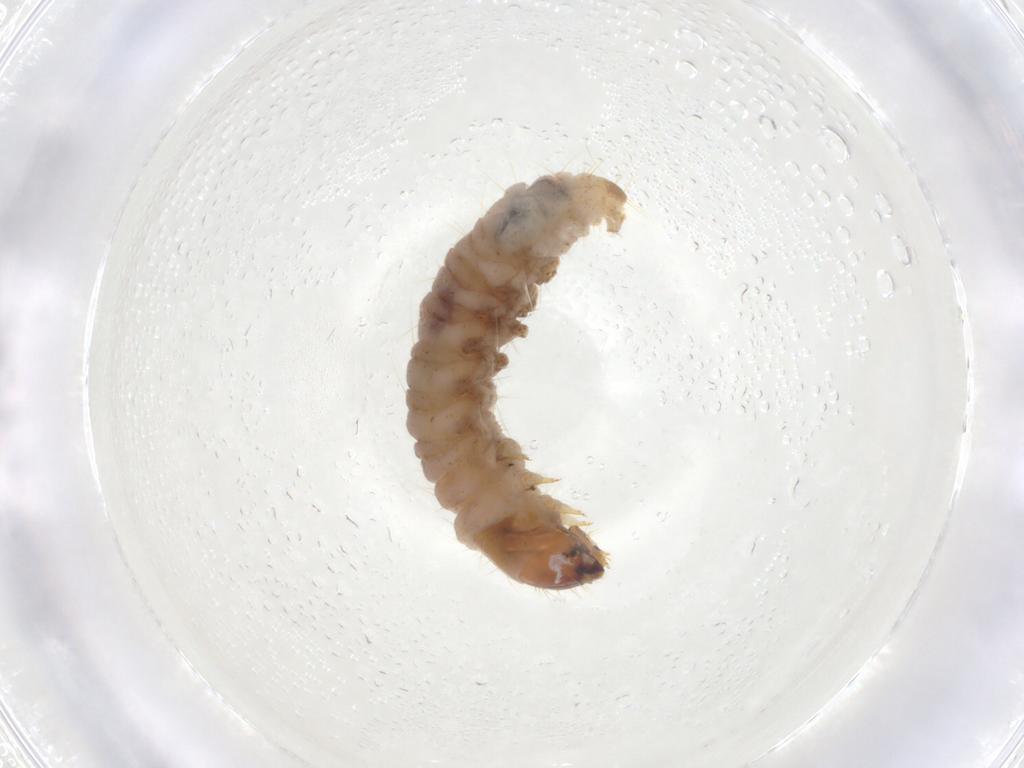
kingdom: Animalia
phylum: Arthropoda
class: Insecta
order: Lepidoptera
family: Coleophoridae
